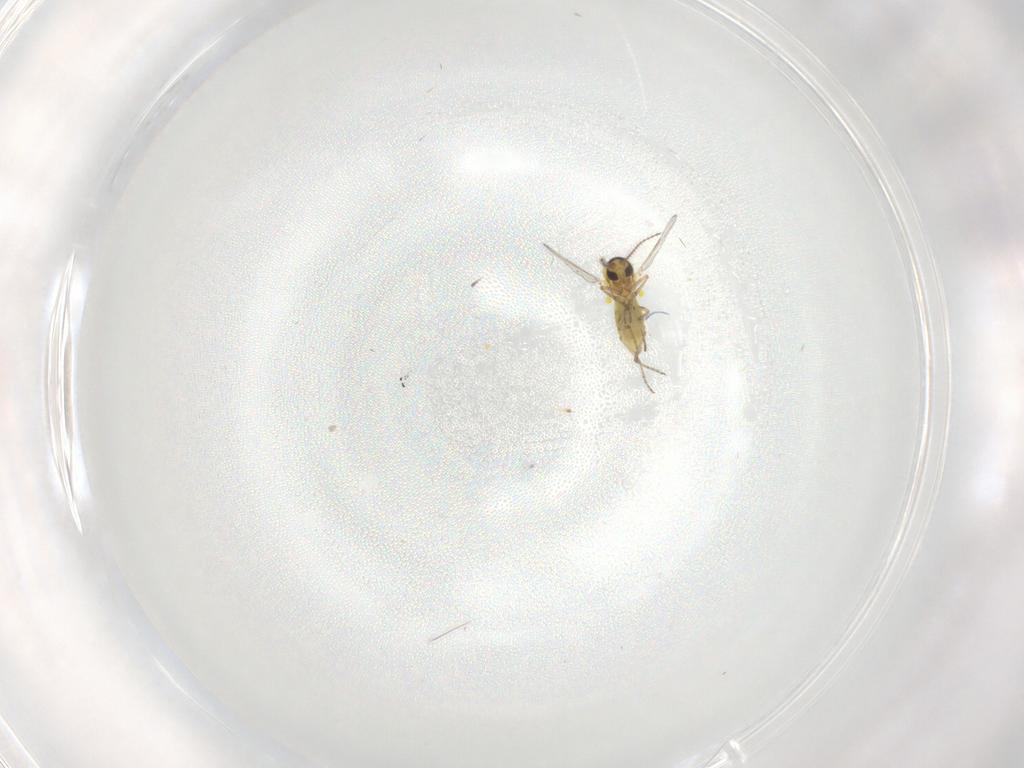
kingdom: Animalia
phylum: Arthropoda
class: Insecta
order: Diptera
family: Ceratopogonidae
